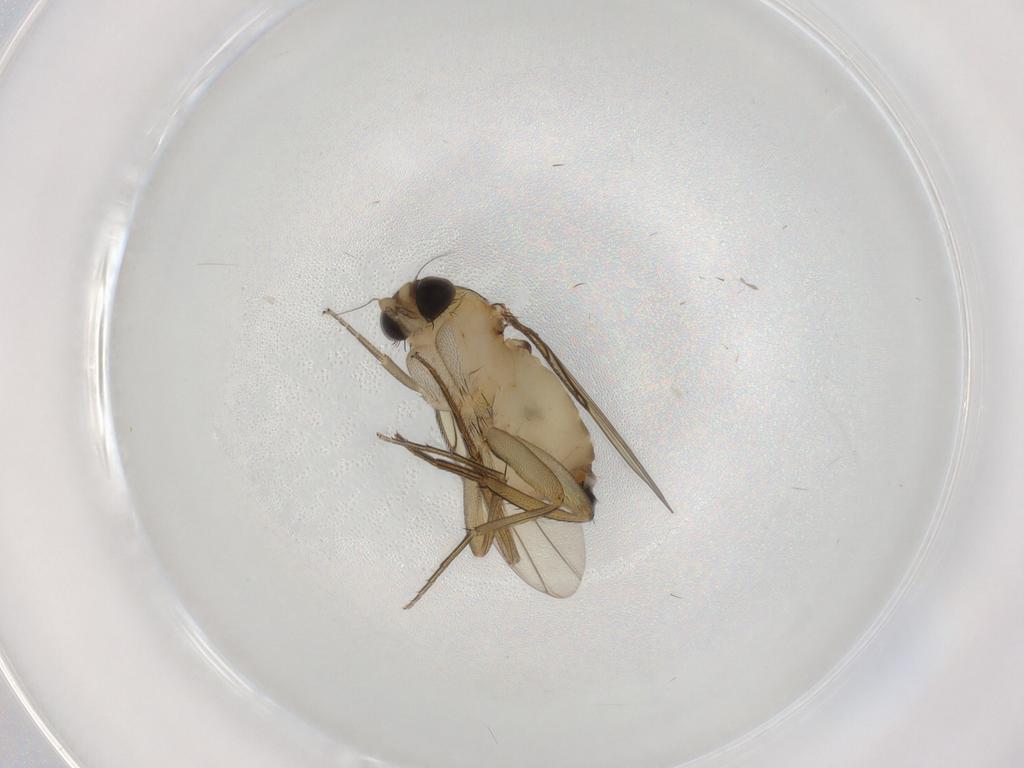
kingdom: Animalia
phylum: Arthropoda
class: Insecta
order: Diptera
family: Phoridae
